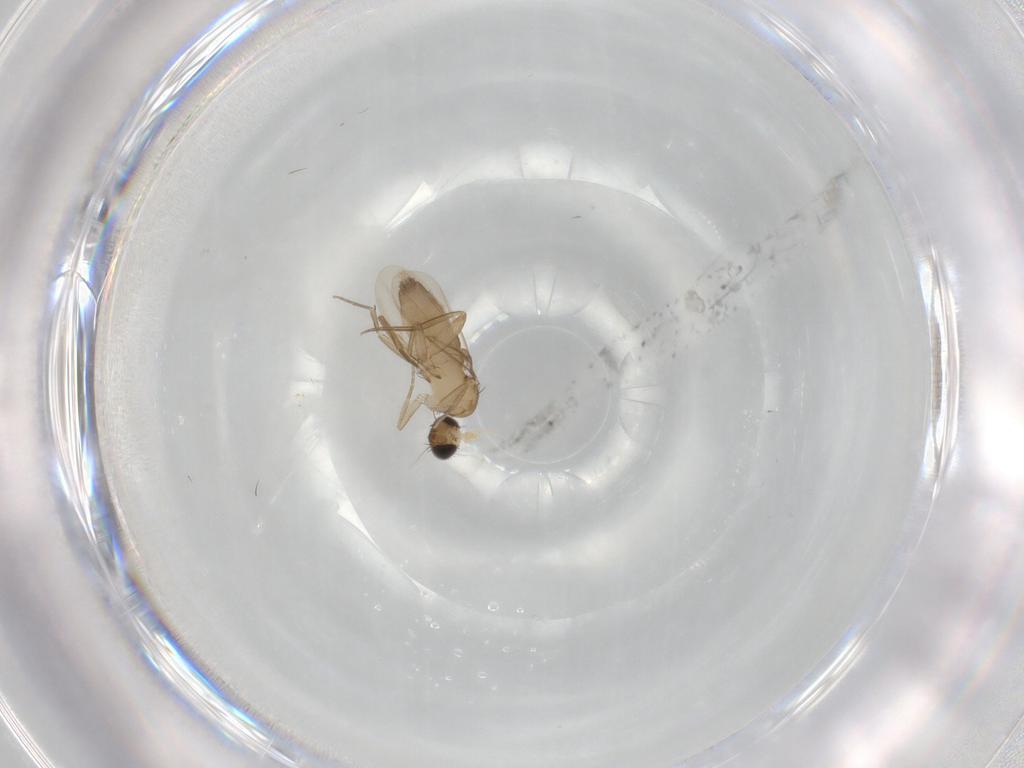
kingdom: Animalia
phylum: Arthropoda
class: Insecta
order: Diptera
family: Phoridae
